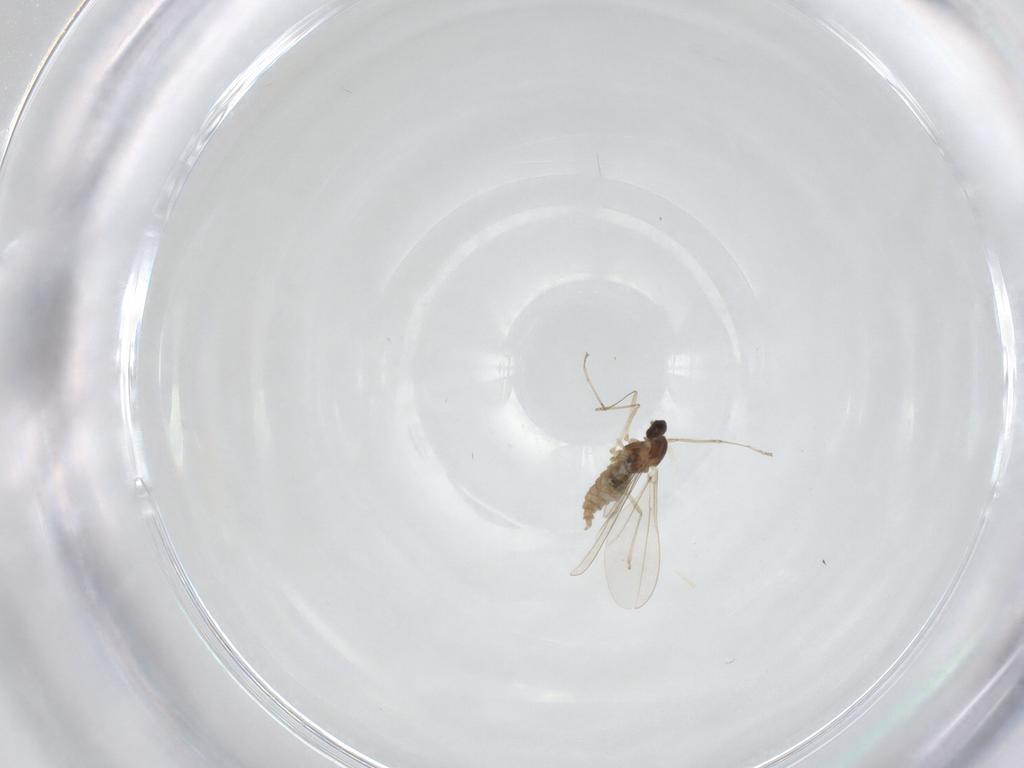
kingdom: Animalia
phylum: Arthropoda
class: Insecta
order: Diptera
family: Cecidomyiidae
